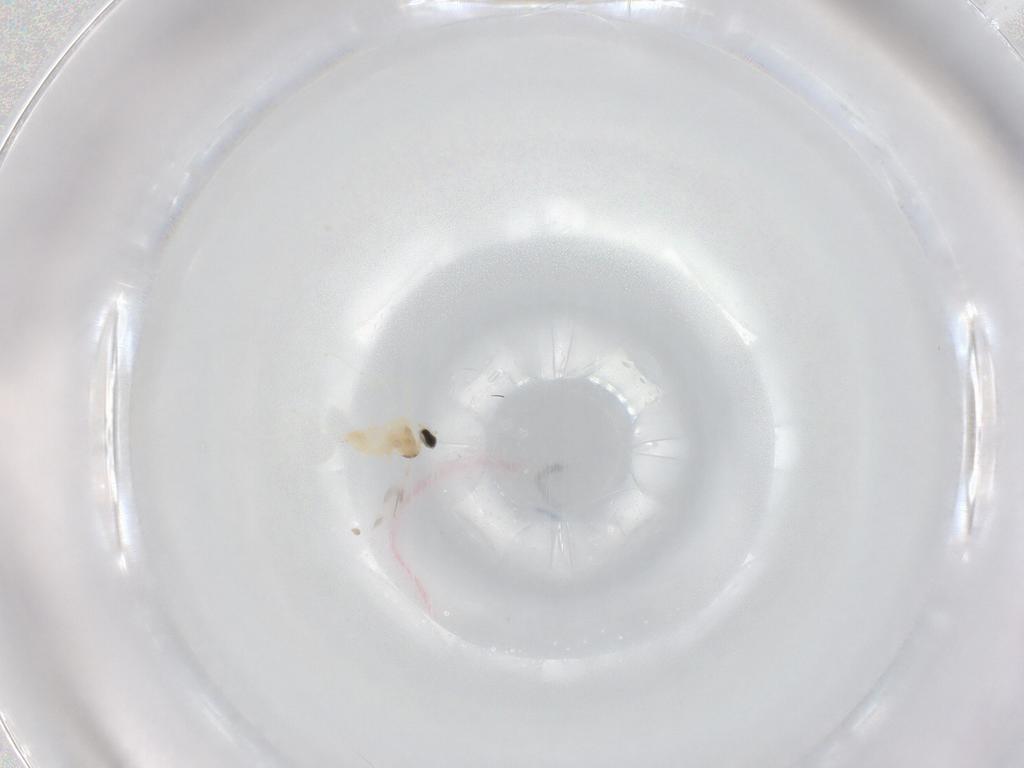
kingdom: Animalia
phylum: Arthropoda
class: Insecta
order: Diptera
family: Cecidomyiidae
